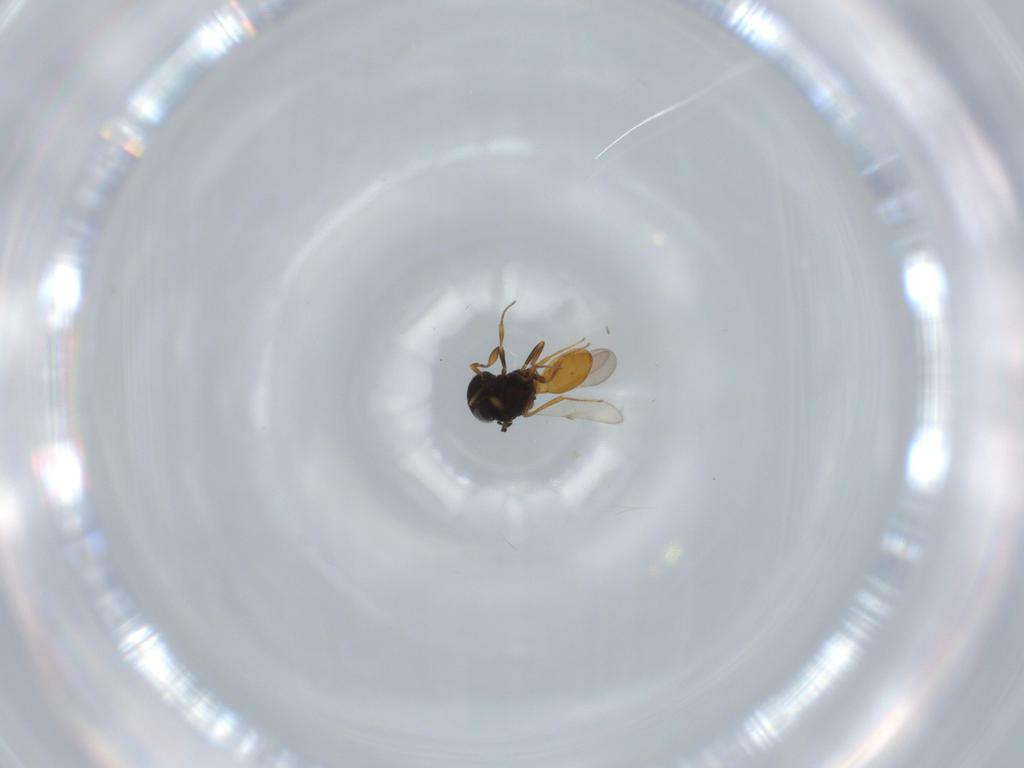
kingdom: Animalia
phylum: Arthropoda
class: Insecta
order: Hymenoptera
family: Scelionidae
